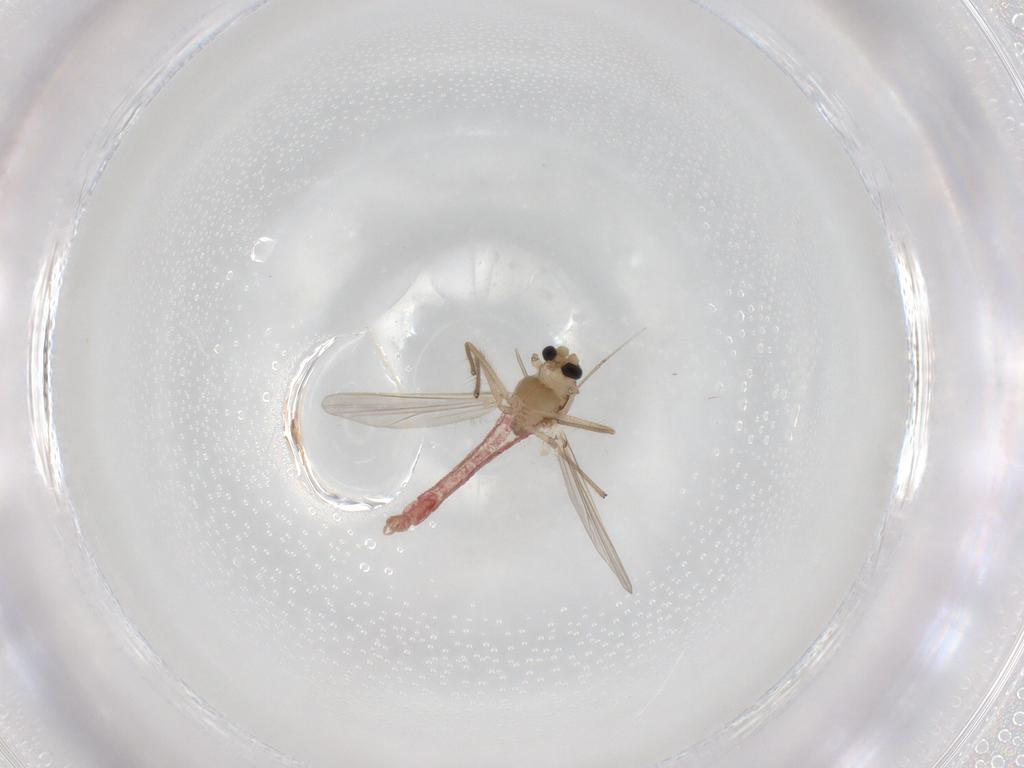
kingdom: Animalia
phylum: Arthropoda
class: Insecta
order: Diptera
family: Chironomidae
